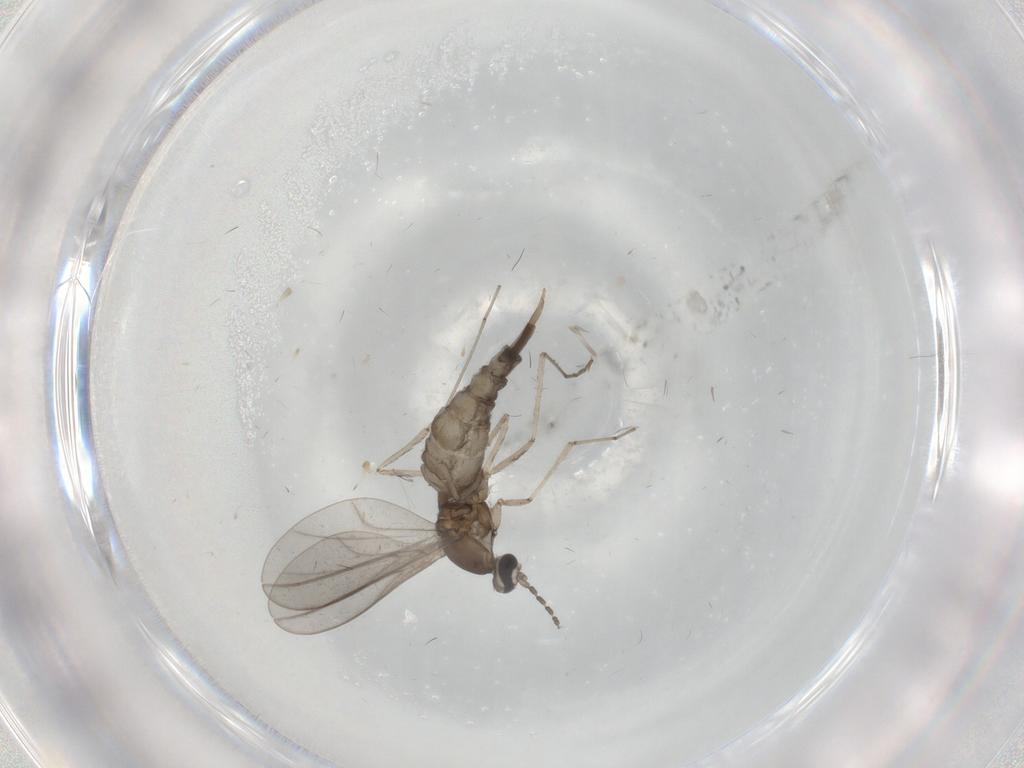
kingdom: Animalia
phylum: Arthropoda
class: Insecta
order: Diptera
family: Cecidomyiidae
